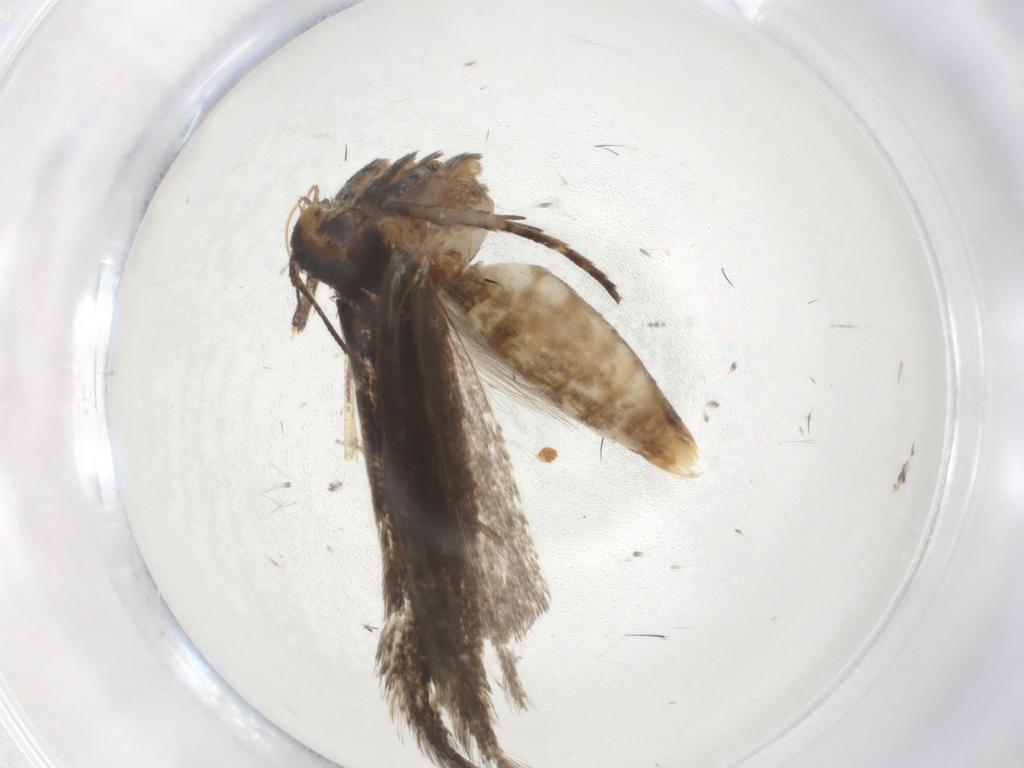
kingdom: Animalia
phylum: Arthropoda
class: Insecta
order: Lepidoptera
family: Gelechiidae
